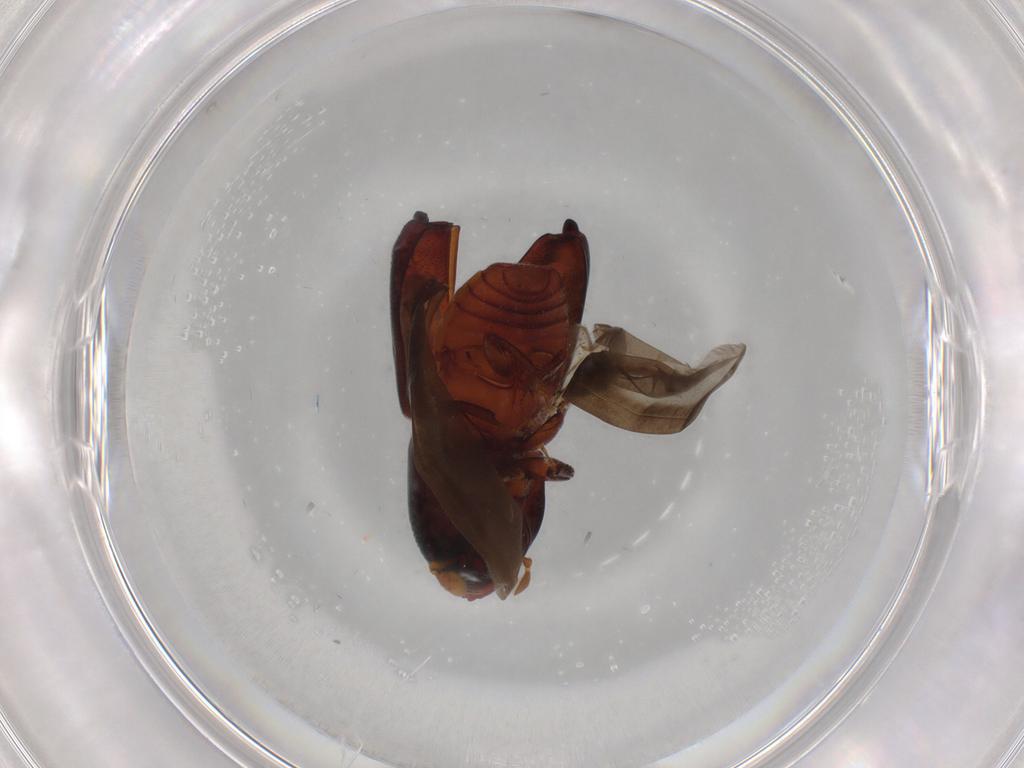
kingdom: Animalia
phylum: Arthropoda
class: Insecta
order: Coleoptera
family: Chrysomelidae
